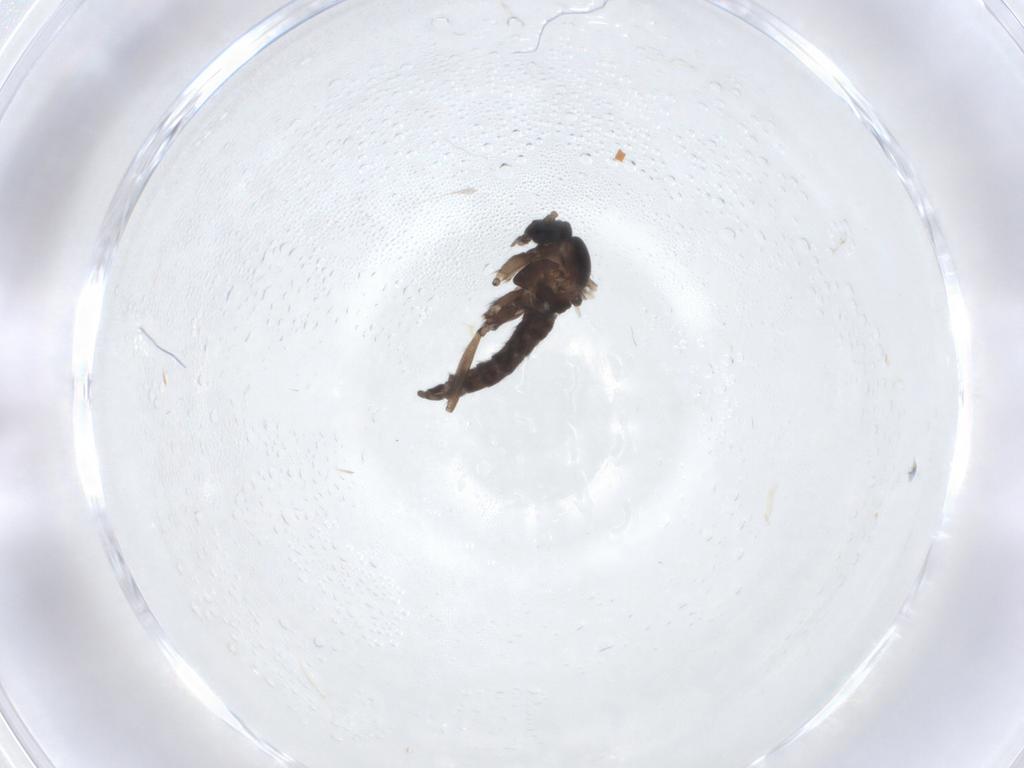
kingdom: Animalia
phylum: Arthropoda
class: Insecta
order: Diptera
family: Sciaridae
